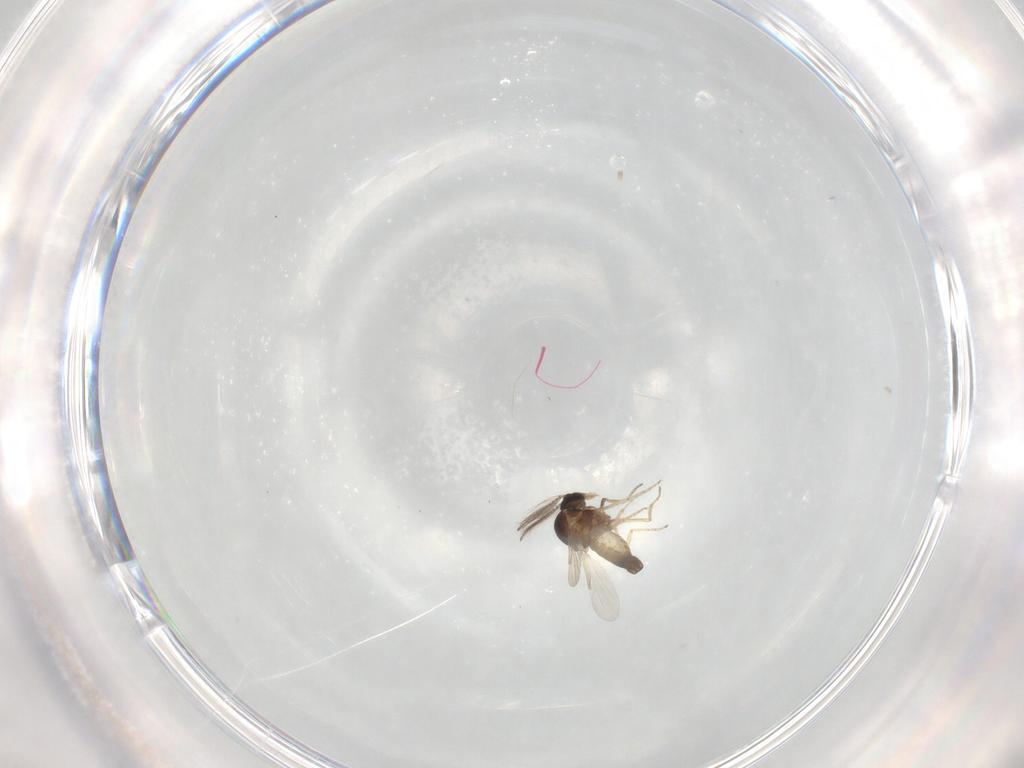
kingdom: Animalia
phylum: Arthropoda
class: Insecta
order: Diptera
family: Ceratopogonidae
